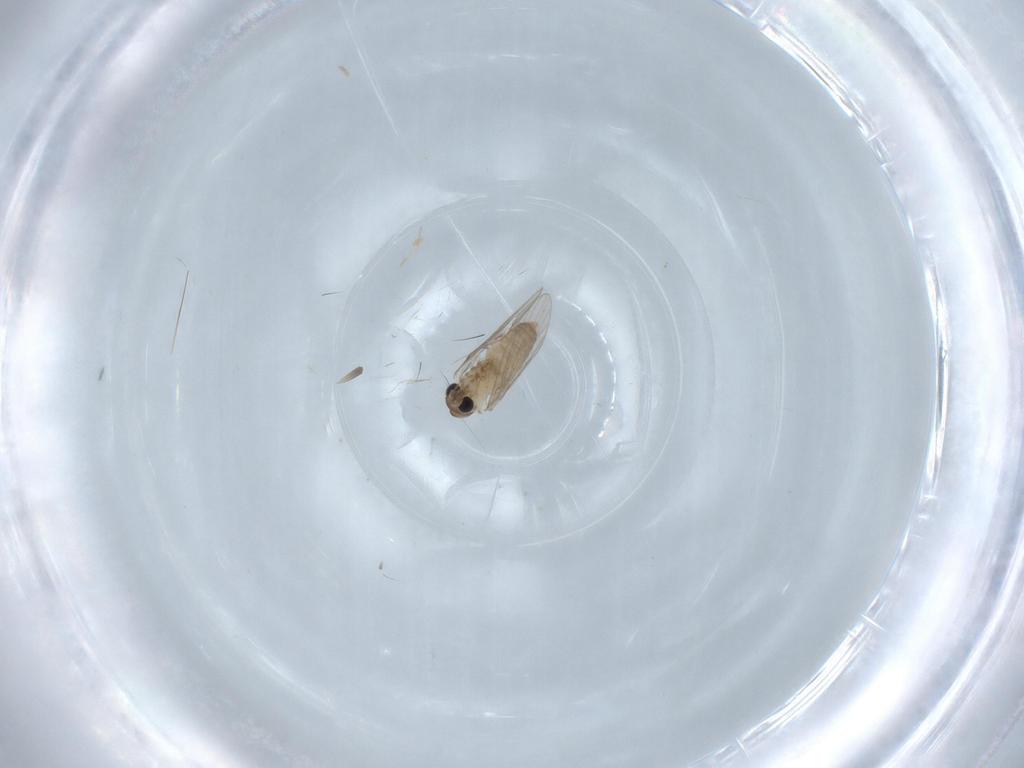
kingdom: Animalia
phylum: Arthropoda
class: Insecta
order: Diptera
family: Psychodidae
